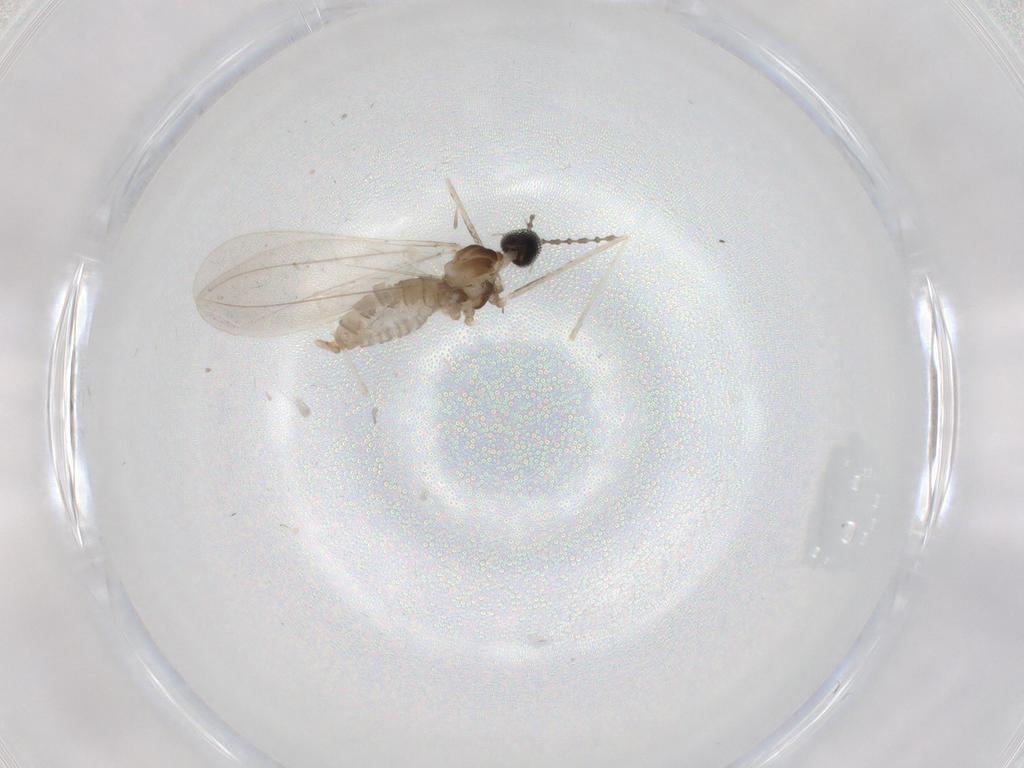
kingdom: Animalia
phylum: Arthropoda
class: Insecta
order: Diptera
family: Cecidomyiidae
